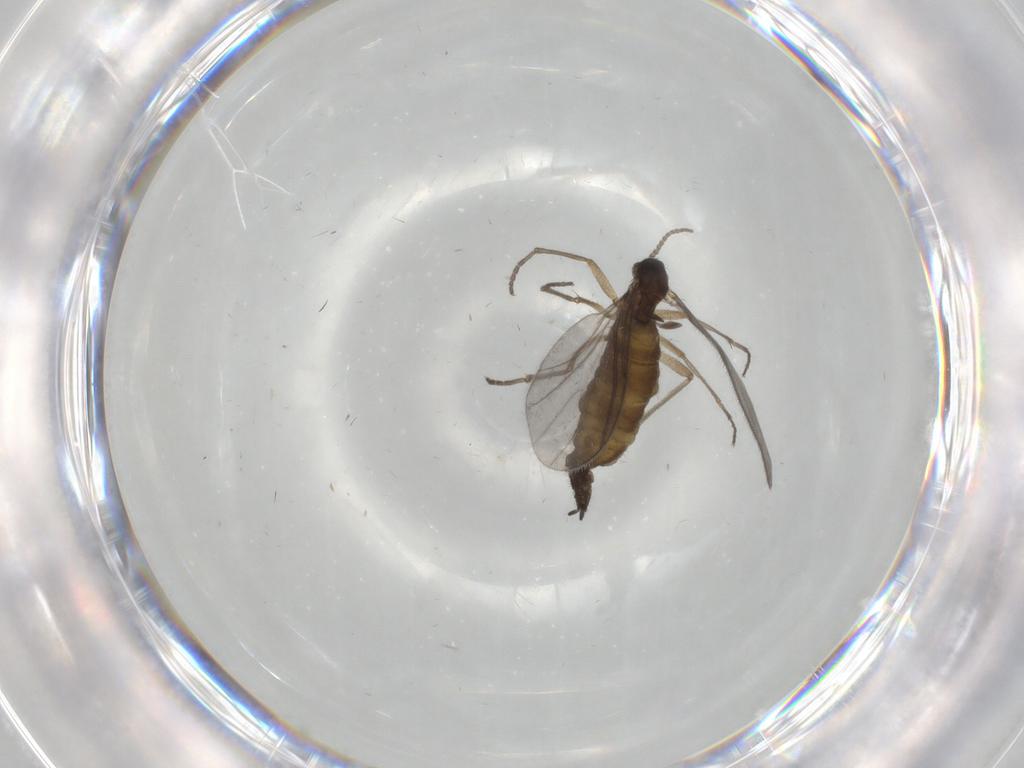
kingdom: Animalia
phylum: Arthropoda
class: Insecta
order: Diptera
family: Sciaridae
